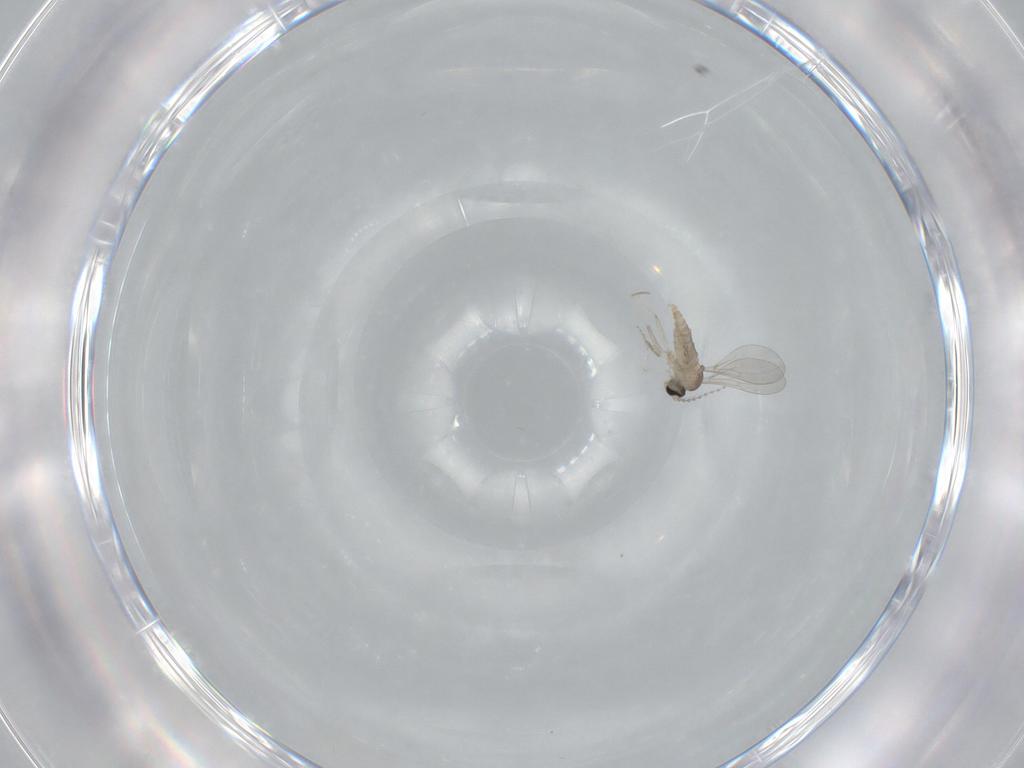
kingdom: Animalia
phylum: Arthropoda
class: Insecta
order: Diptera
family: Cecidomyiidae
